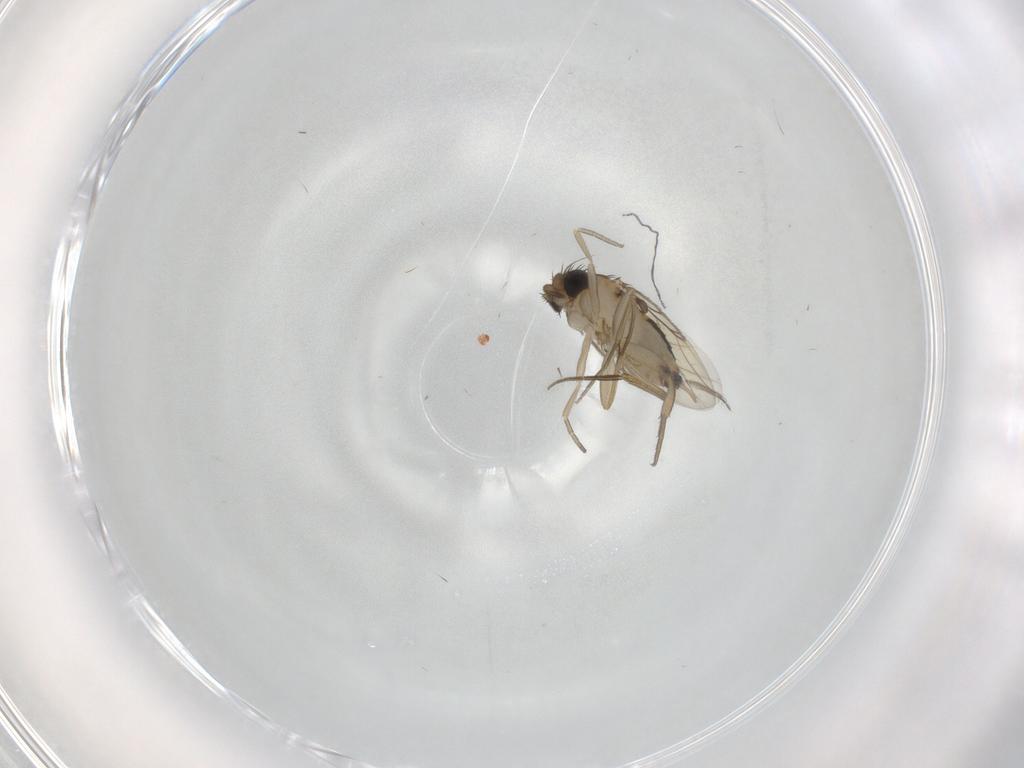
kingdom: Animalia
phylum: Arthropoda
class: Insecta
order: Diptera
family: Phoridae
